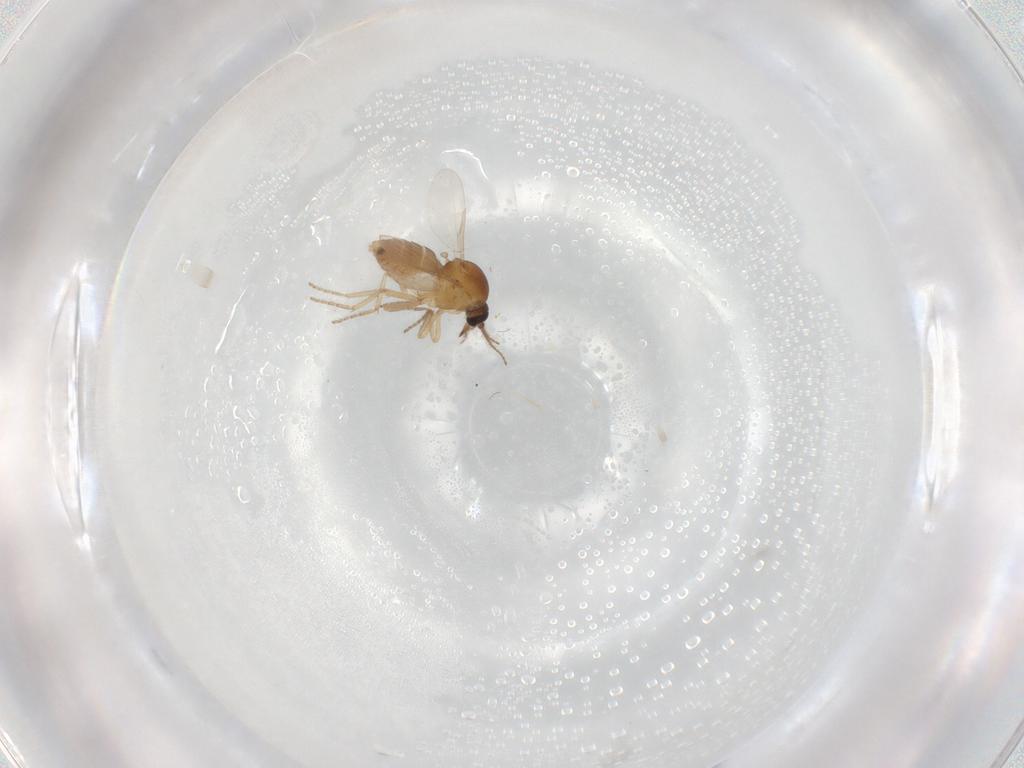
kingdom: Animalia
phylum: Arthropoda
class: Insecta
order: Diptera
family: Ceratopogonidae
